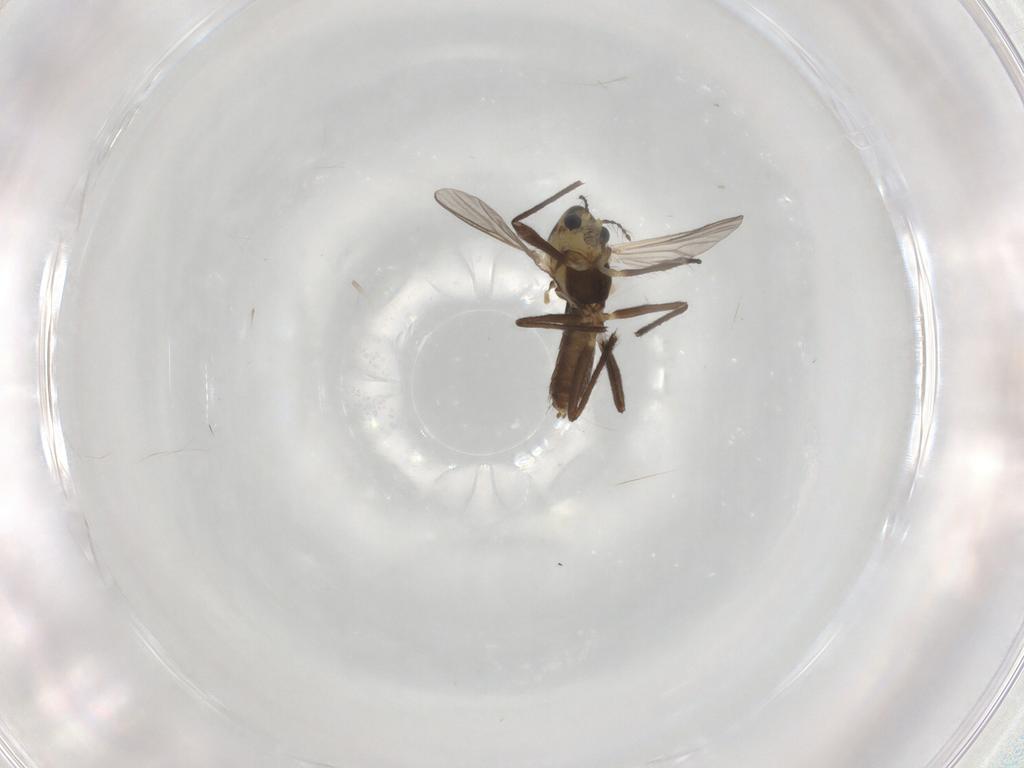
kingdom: Animalia
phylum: Arthropoda
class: Insecta
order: Diptera
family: Chironomidae
